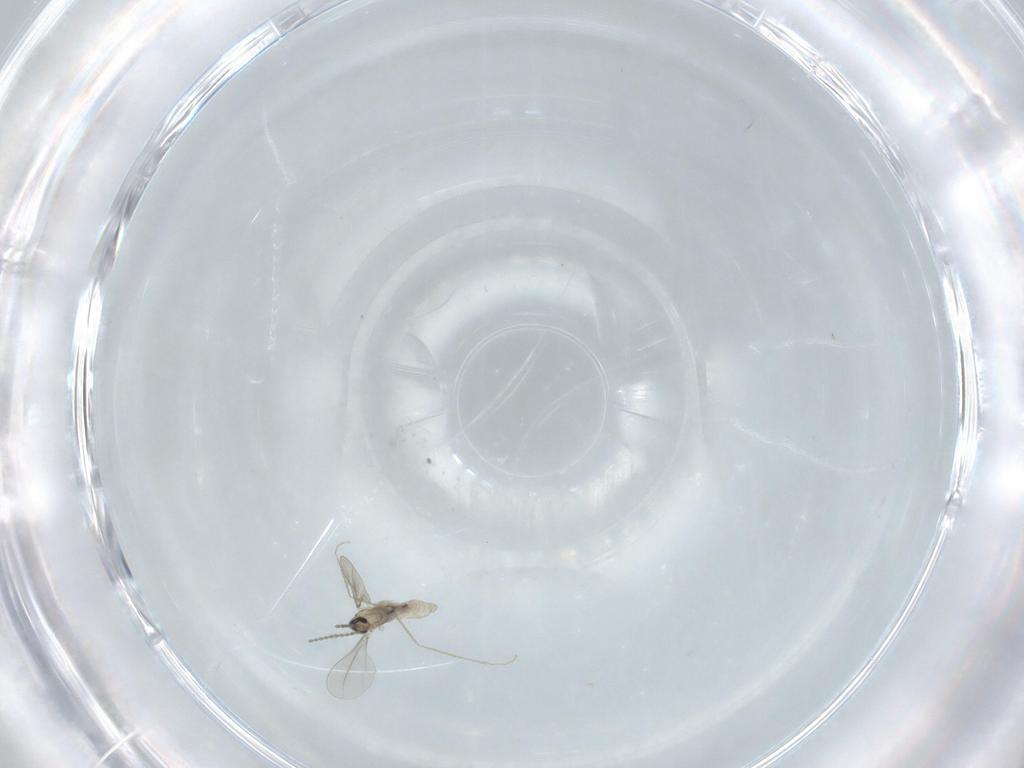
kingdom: Animalia
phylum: Arthropoda
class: Insecta
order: Diptera
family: Cecidomyiidae
